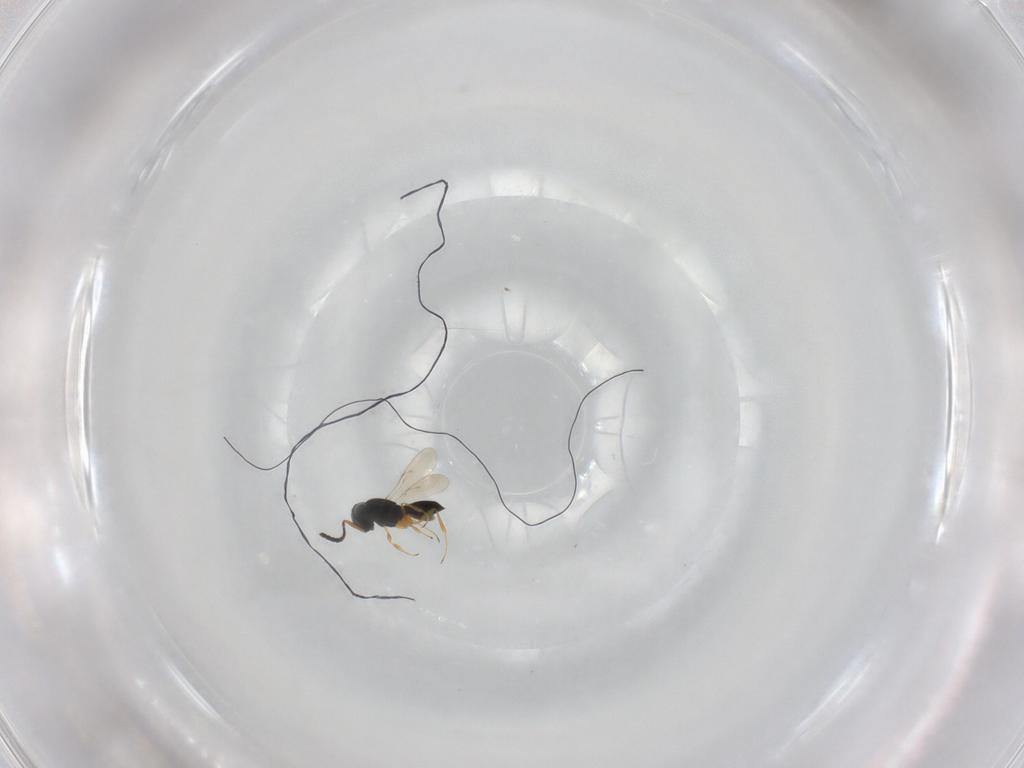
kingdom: Animalia
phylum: Arthropoda
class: Insecta
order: Hymenoptera
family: Scelionidae
